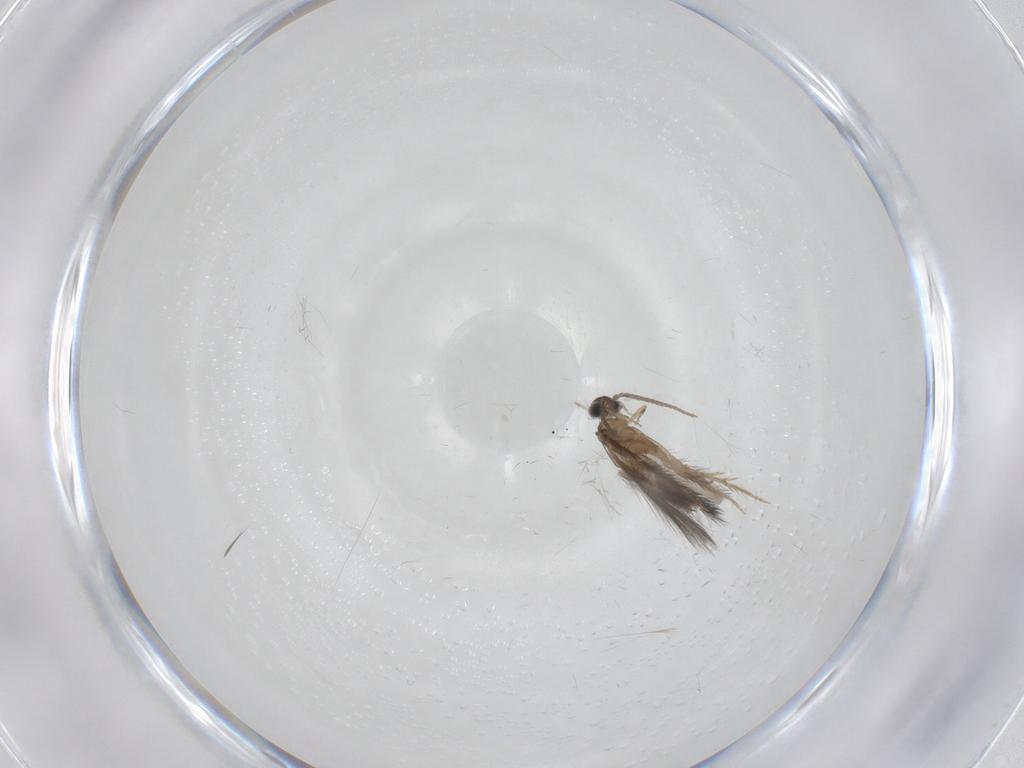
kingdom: Animalia
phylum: Arthropoda
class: Insecta
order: Trichoptera
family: Hydroptilidae
